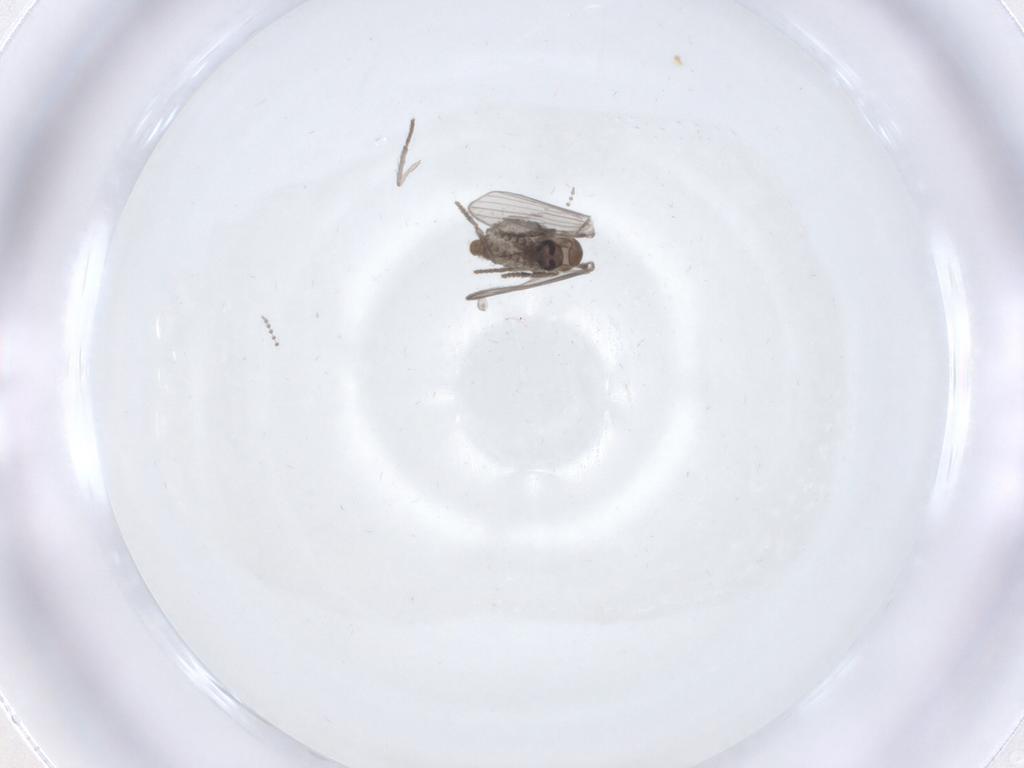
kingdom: Animalia
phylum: Arthropoda
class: Insecta
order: Diptera
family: Psychodidae
